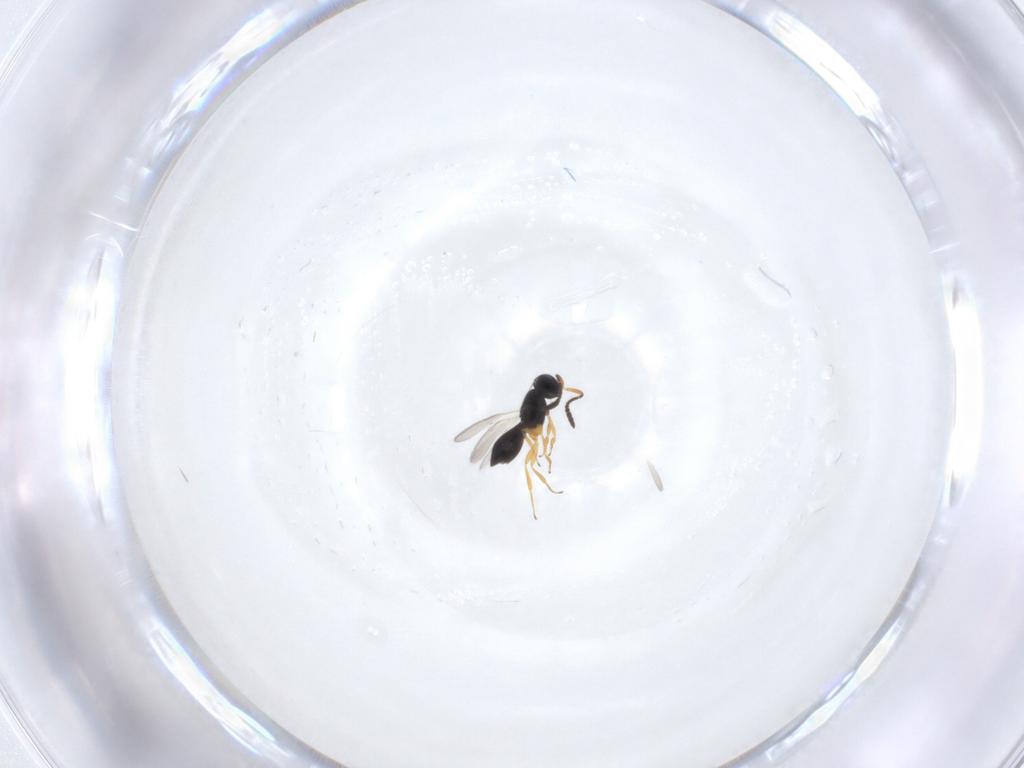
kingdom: Animalia
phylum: Arthropoda
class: Insecta
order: Hymenoptera
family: Scelionidae
